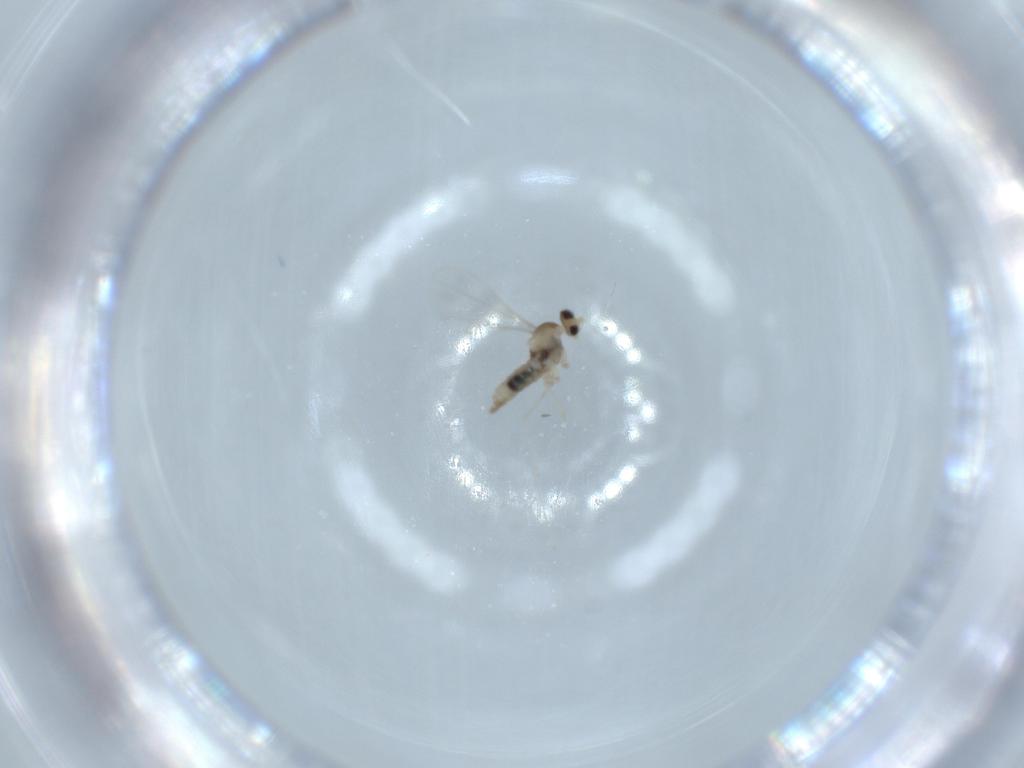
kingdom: Animalia
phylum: Arthropoda
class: Insecta
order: Diptera
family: Cecidomyiidae
